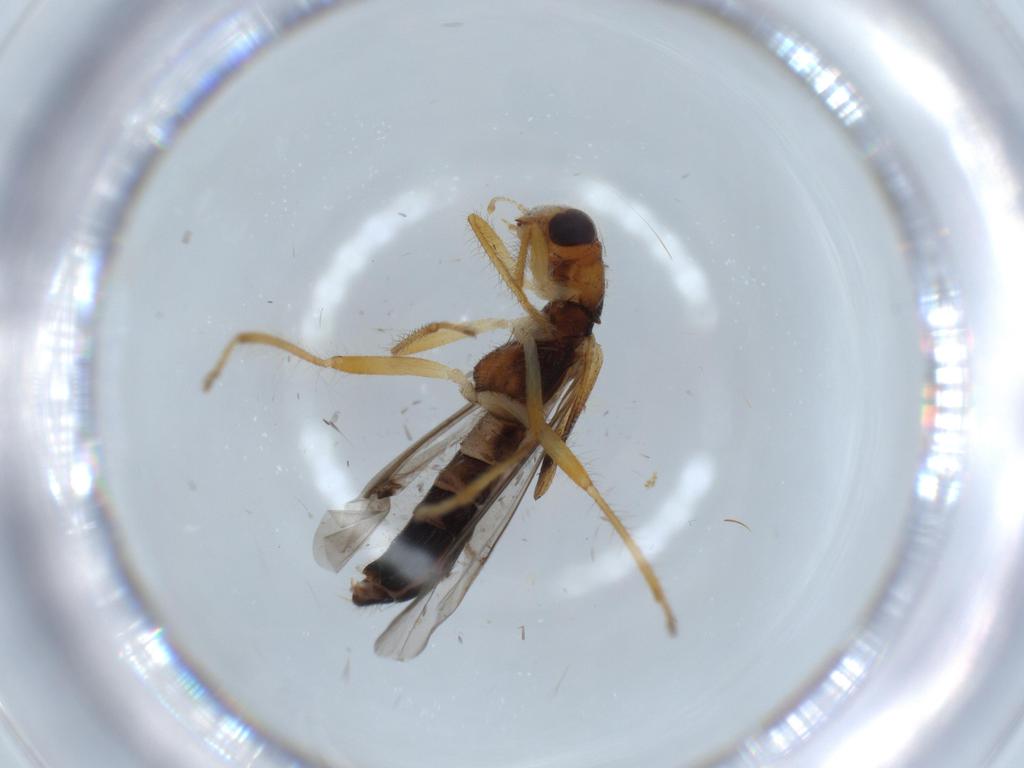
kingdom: Animalia
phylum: Arthropoda
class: Insecta
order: Coleoptera
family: Cleridae
